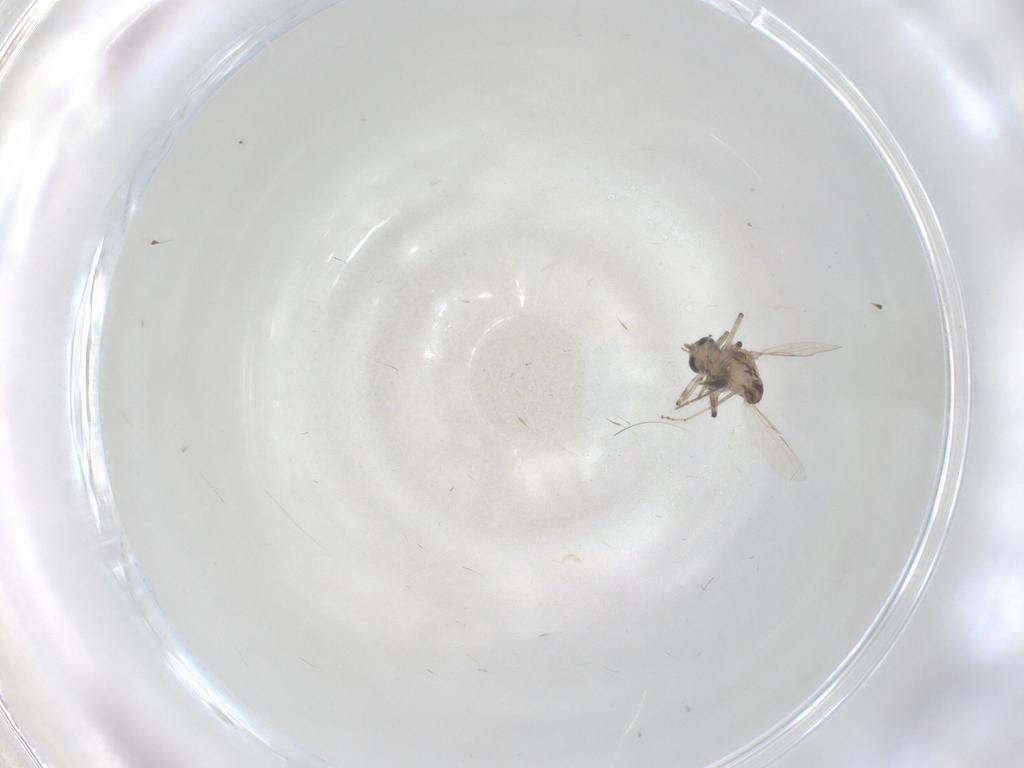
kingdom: Animalia
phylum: Arthropoda
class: Insecta
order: Diptera
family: Ceratopogonidae
